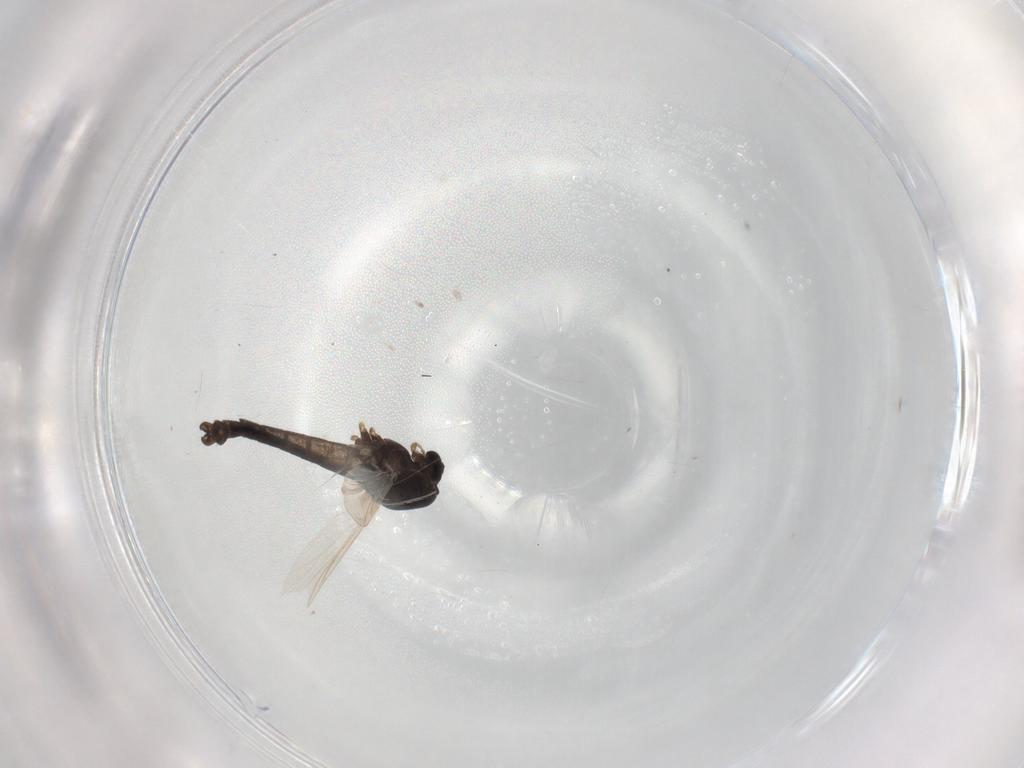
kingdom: Animalia
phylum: Arthropoda
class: Insecta
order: Diptera
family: Chironomidae
